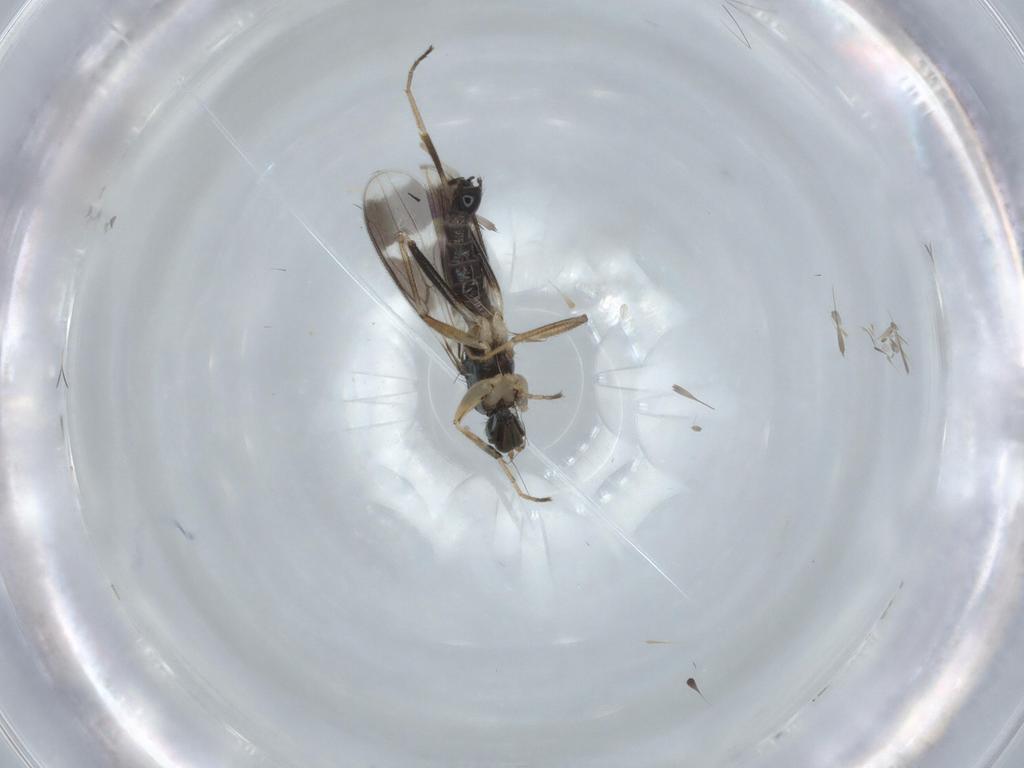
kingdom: Animalia
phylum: Arthropoda
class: Insecta
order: Diptera
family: Hybotidae
